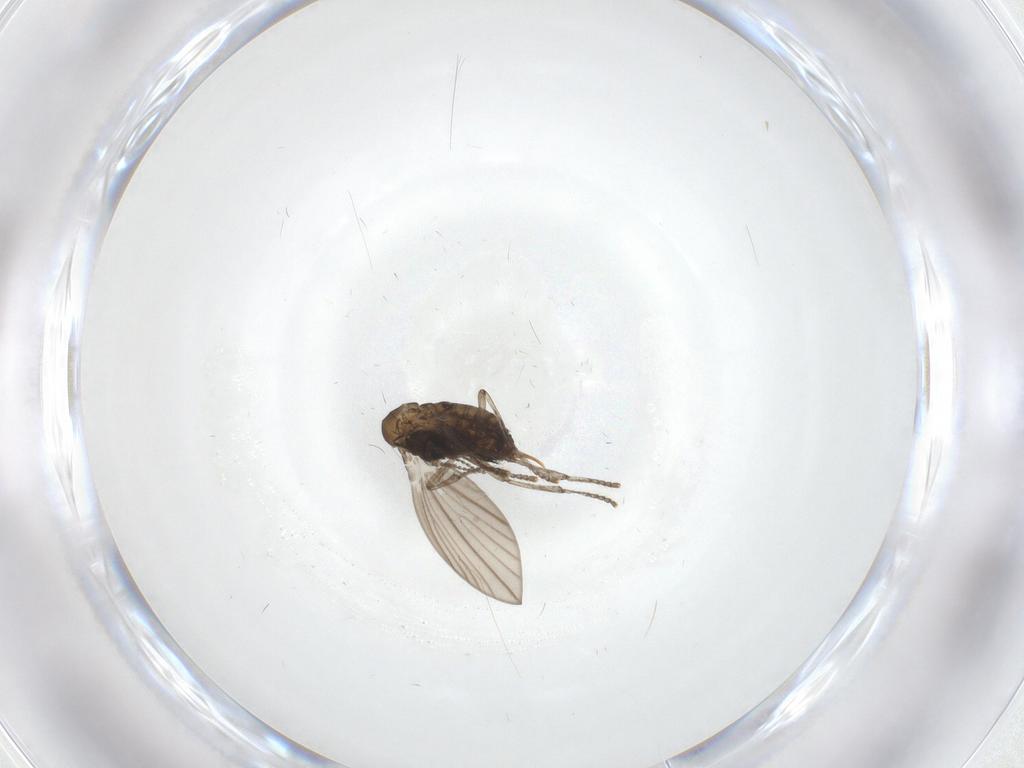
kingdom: Animalia
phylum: Arthropoda
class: Insecta
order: Diptera
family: Psychodidae
